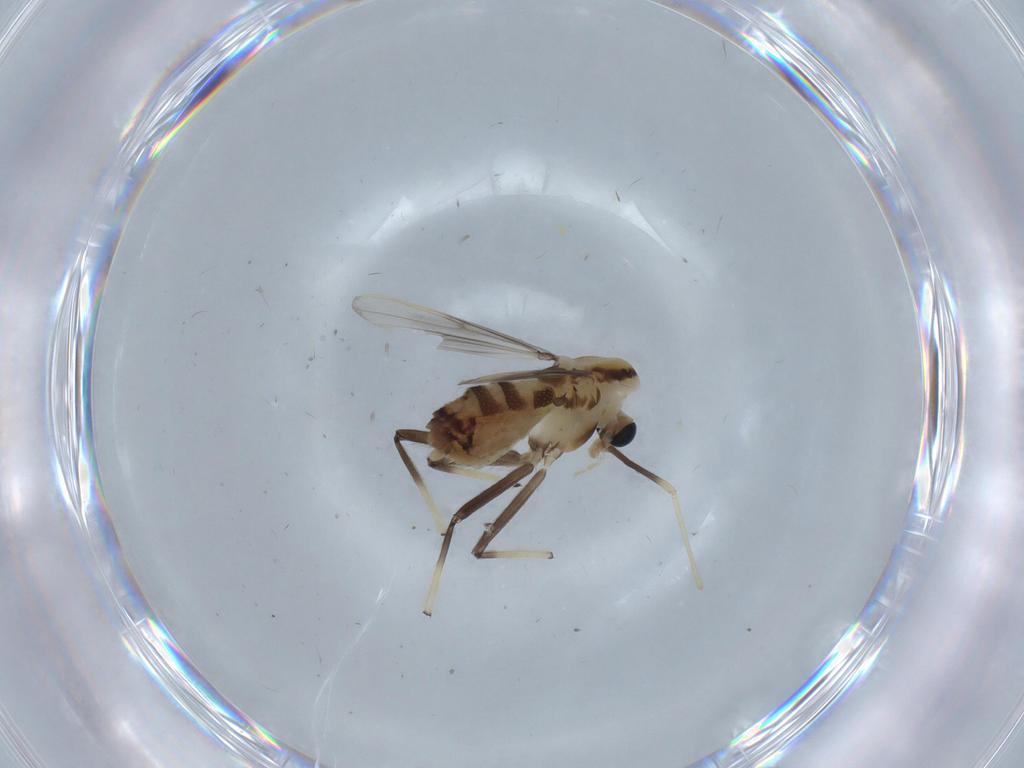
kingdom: Animalia
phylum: Arthropoda
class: Insecta
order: Diptera
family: Chironomidae
